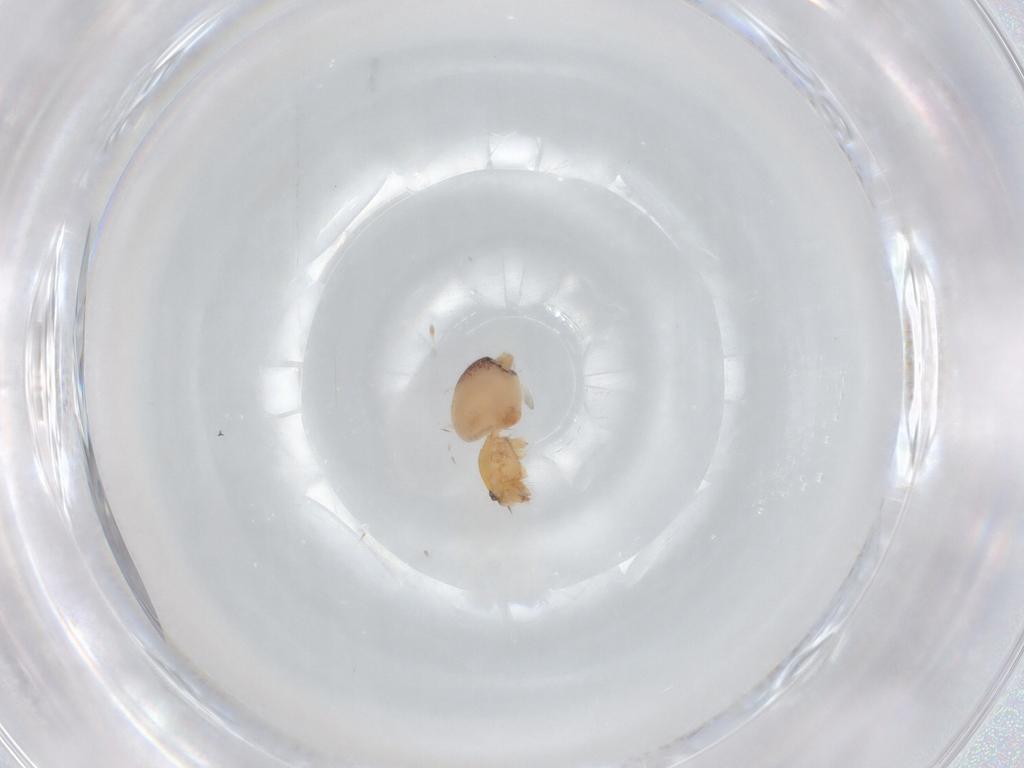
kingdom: Animalia
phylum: Arthropoda
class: Arachnida
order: Araneae
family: Dictynidae
